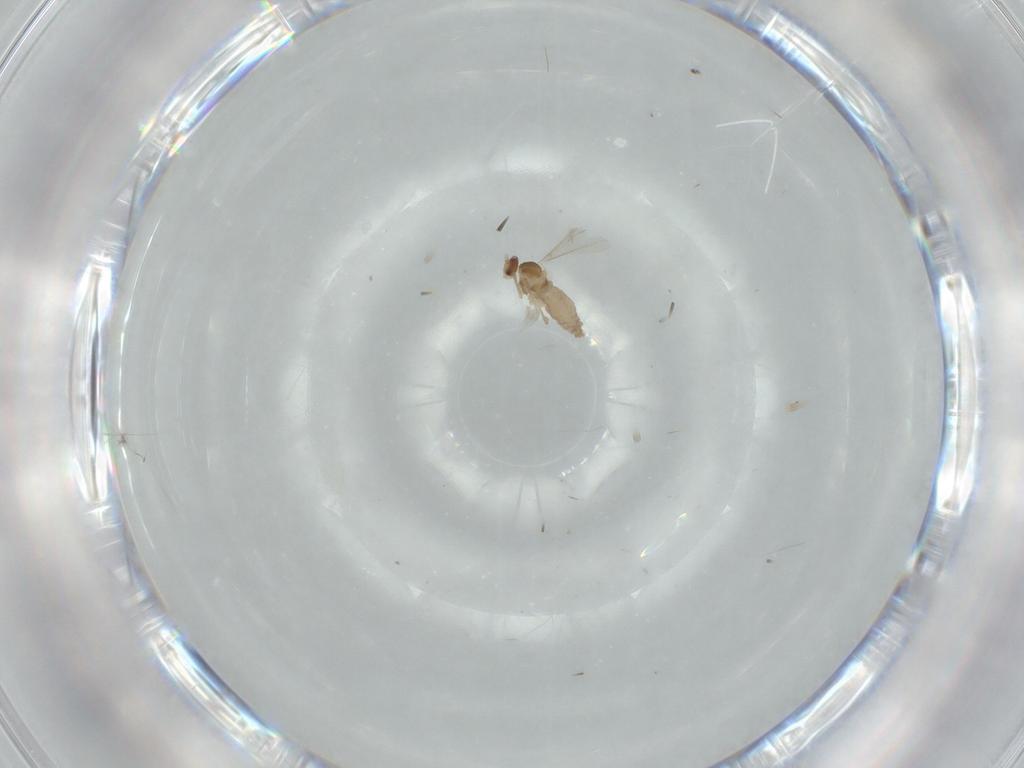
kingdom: Animalia
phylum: Arthropoda
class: Insecta
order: Diptera
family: Cecidomyiidae
